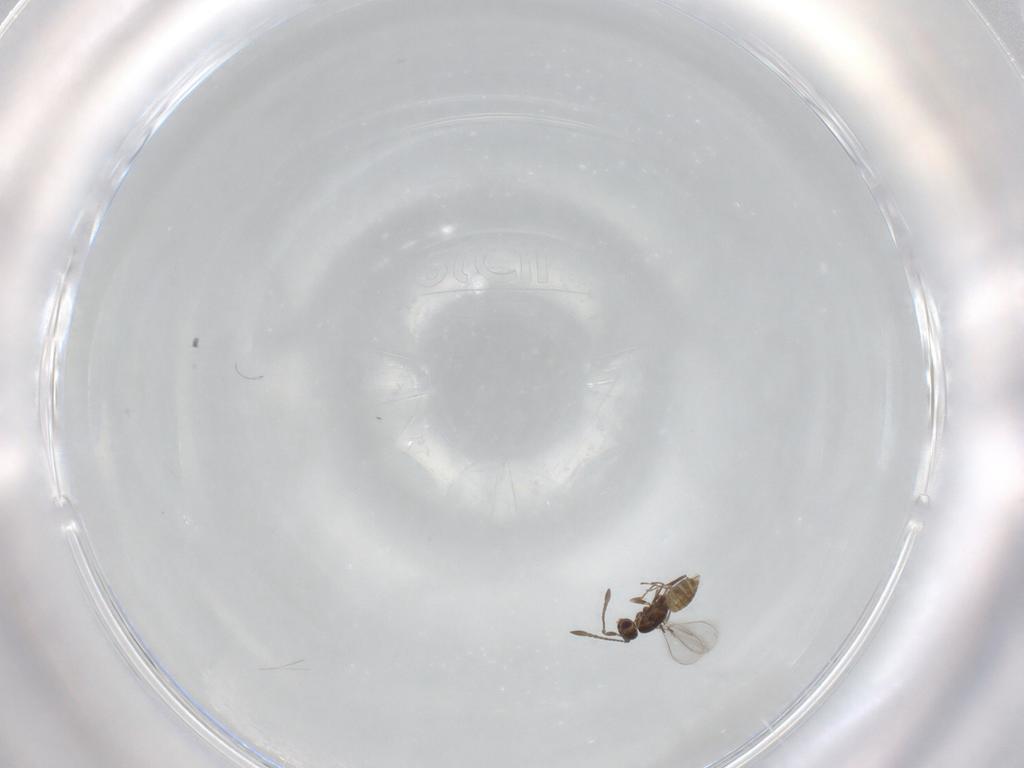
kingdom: Animalia
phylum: Arthropoda
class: Insecta
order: Hymenoptera
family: Mymaridae
